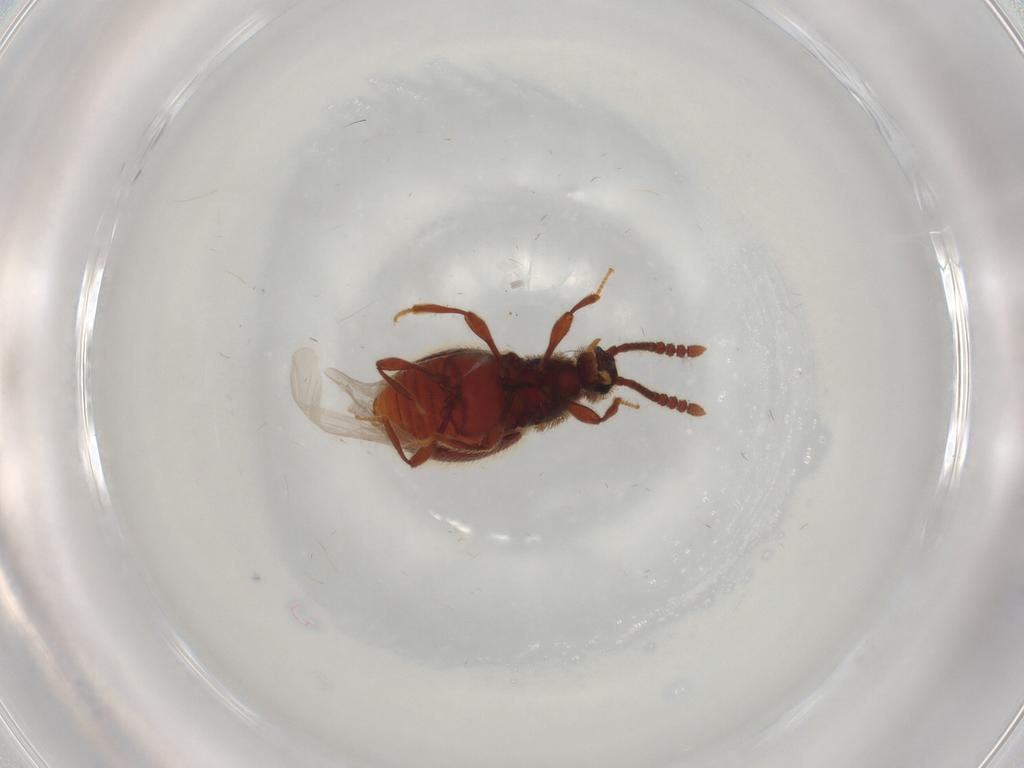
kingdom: Animalia
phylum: Arthropoda
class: Insecta
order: Coleoptera
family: Staphylinidae
